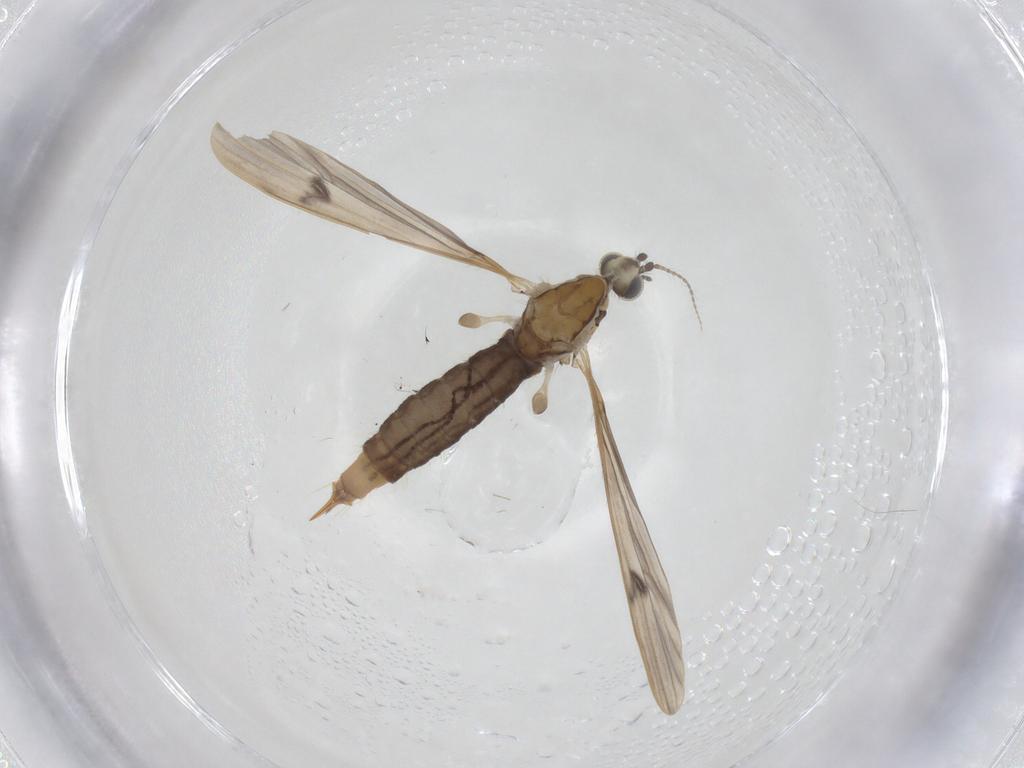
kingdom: Animalia
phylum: Arthropoda
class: Insecta
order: Diptera
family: Limoniidae
